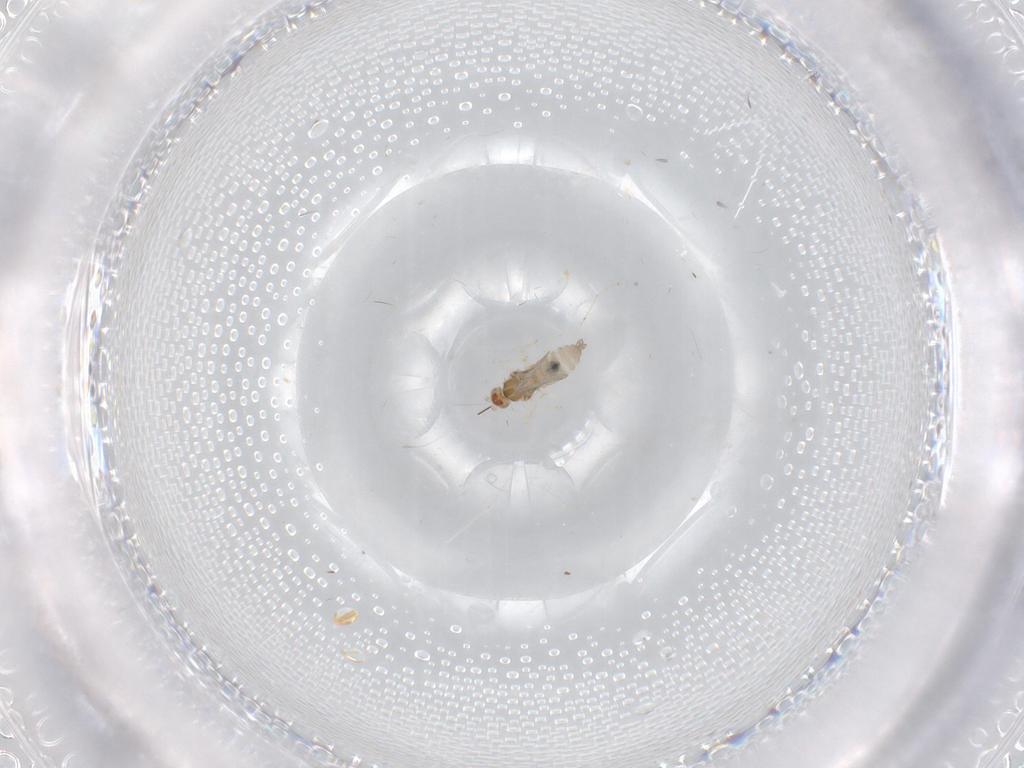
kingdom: Animalia
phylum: Arthropoda
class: Insecta
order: Diptera
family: Cecidomyiidae
